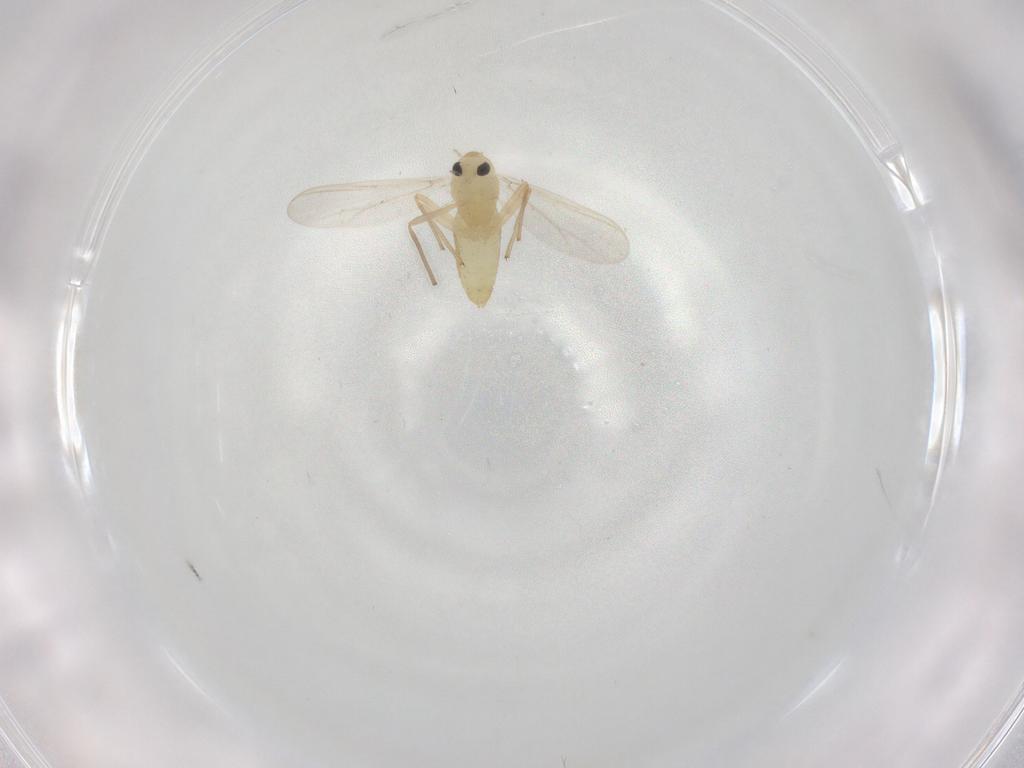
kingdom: Animalia
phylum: Arthropoda
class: Insecta
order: Diptera
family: Chironomidae
